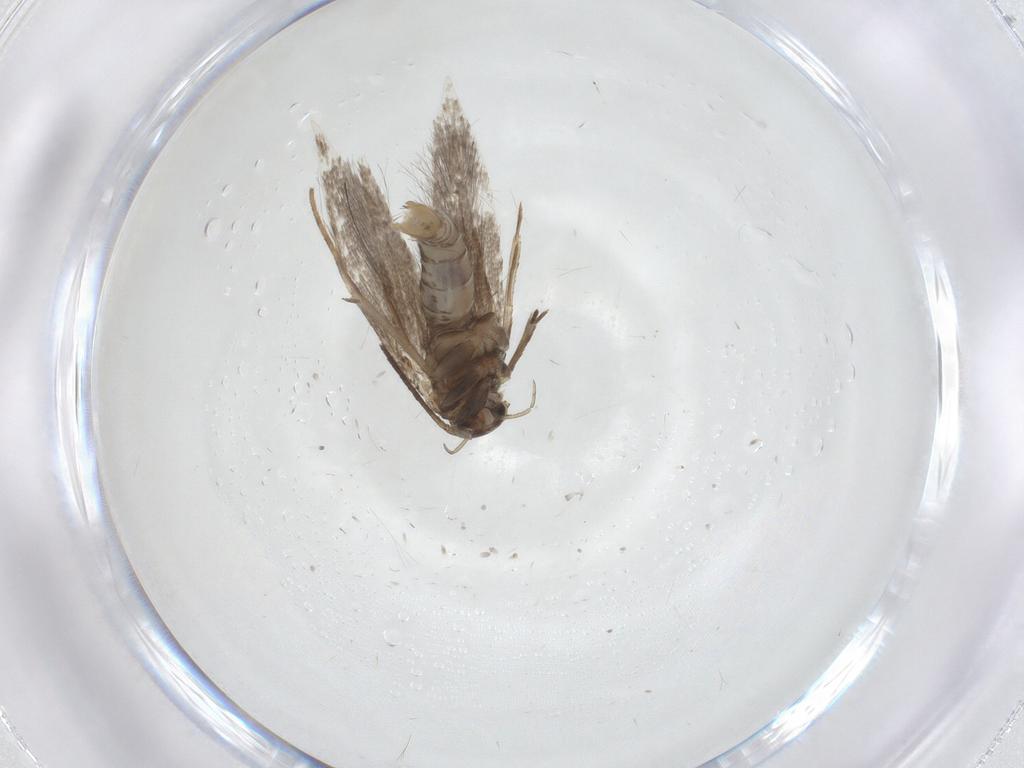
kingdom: Animalia
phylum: Arthropoda
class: Insecta
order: Lepidoptera
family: Elachistidae
